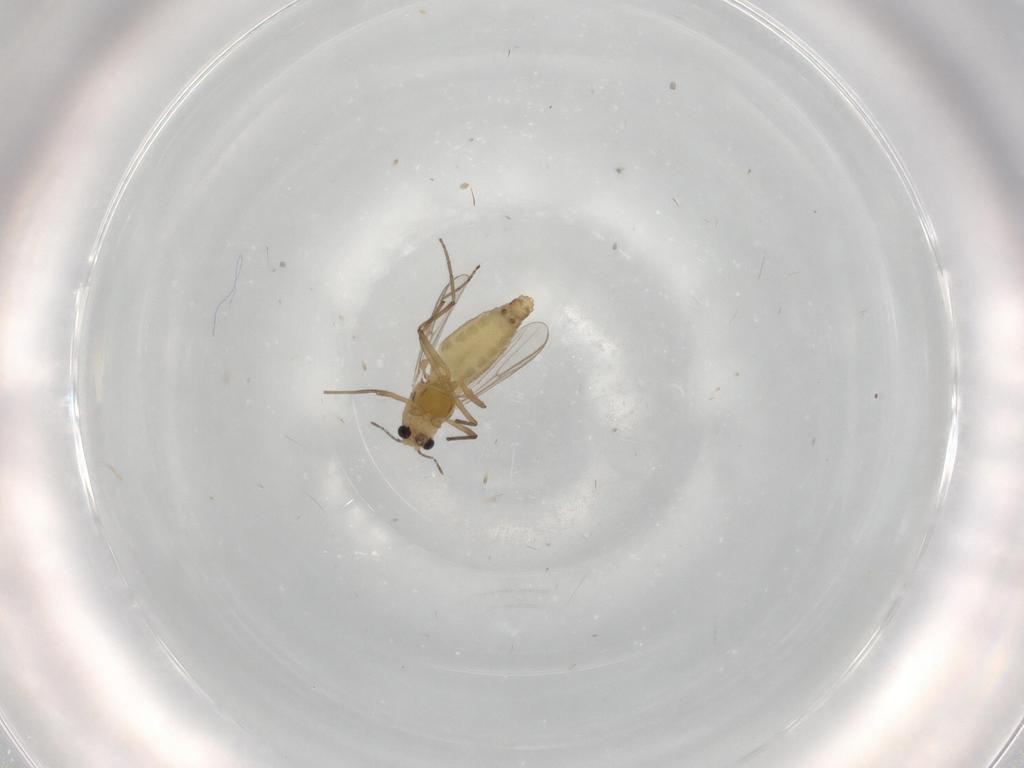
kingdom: Animalia
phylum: Arthropoda
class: Insecta
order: Diptera
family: Chironomidae
